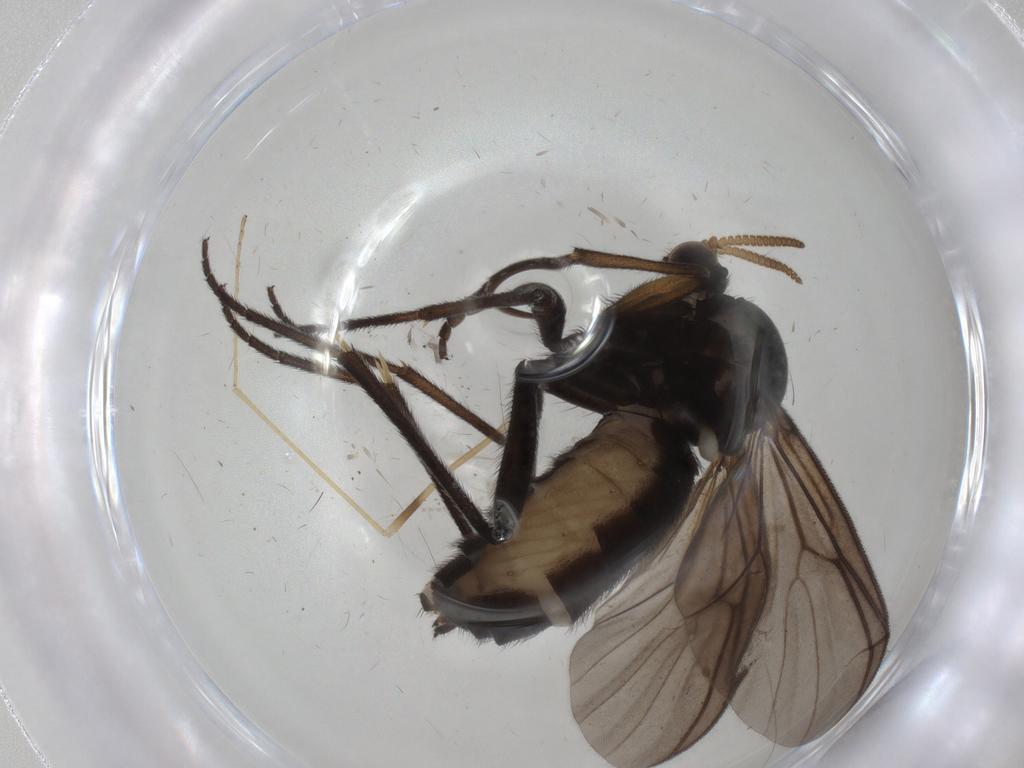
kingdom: Animalia
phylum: Arthropoda
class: Insecta
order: Diptera
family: Mycetophilidae
